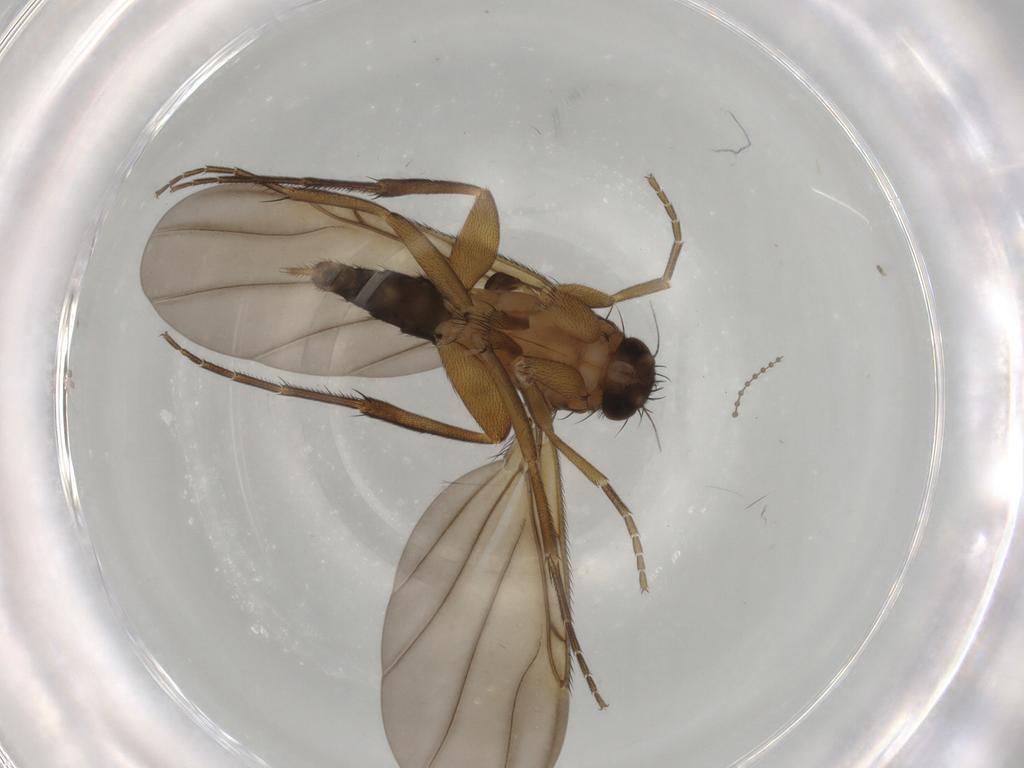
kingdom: Animalia
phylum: Arthropoda
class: Insecta
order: Diptera
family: Phoridae
